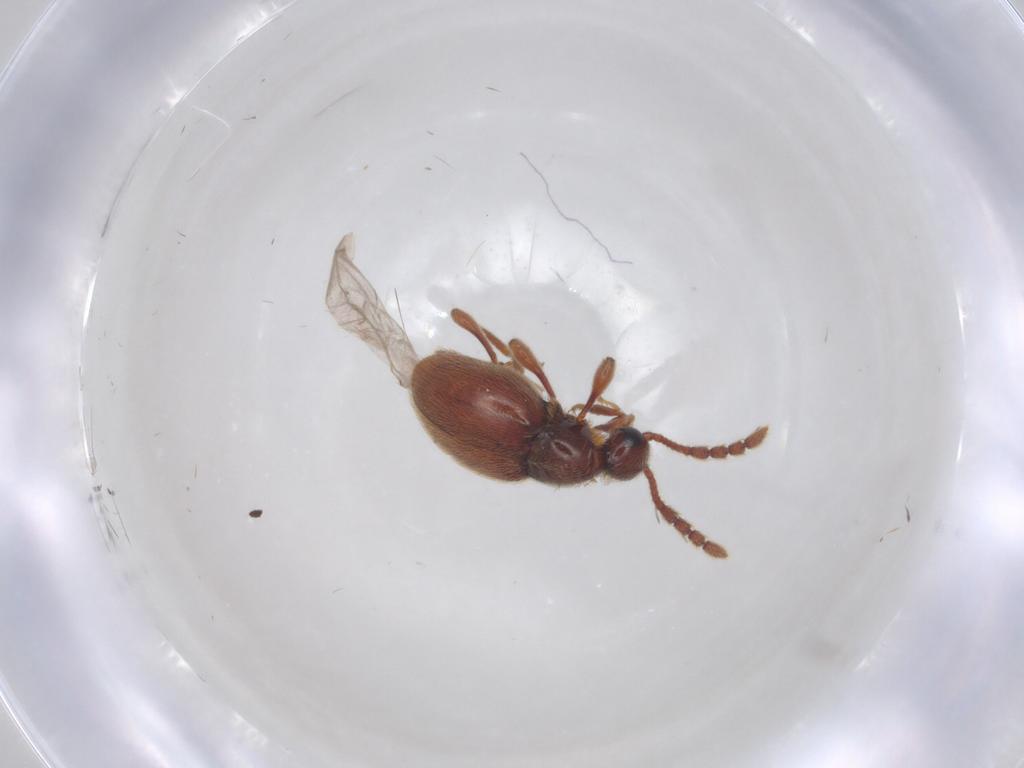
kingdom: Animalia
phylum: Arthropoda
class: Insecta
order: Coleoptera
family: Staphylinidae
